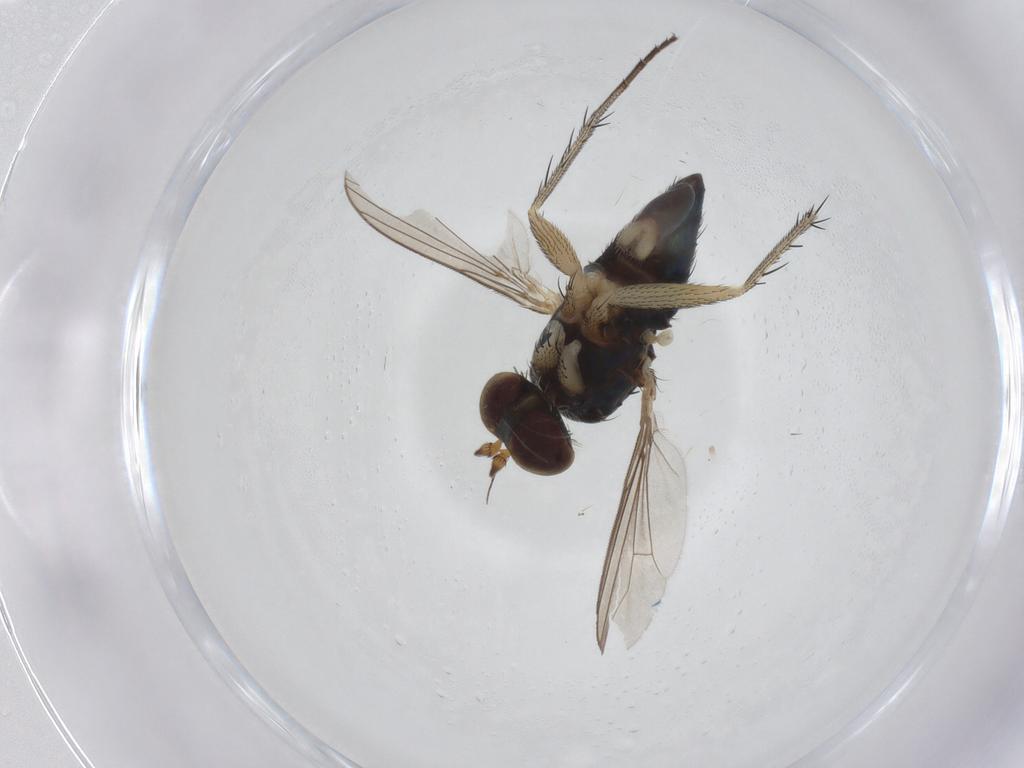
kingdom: Animalia
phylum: Arthropoda
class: Insecta
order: Diptera
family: Dolichopodidae
